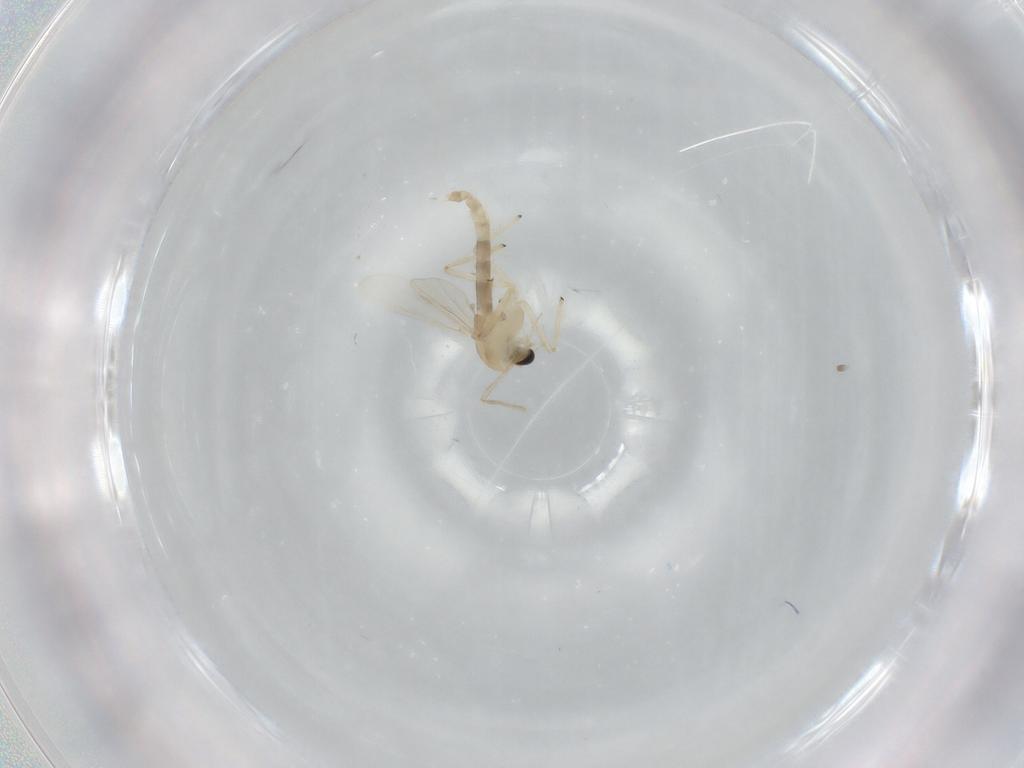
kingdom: Animalia
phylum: Arthropoda
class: Insecta
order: Diptera
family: Chironomidae
